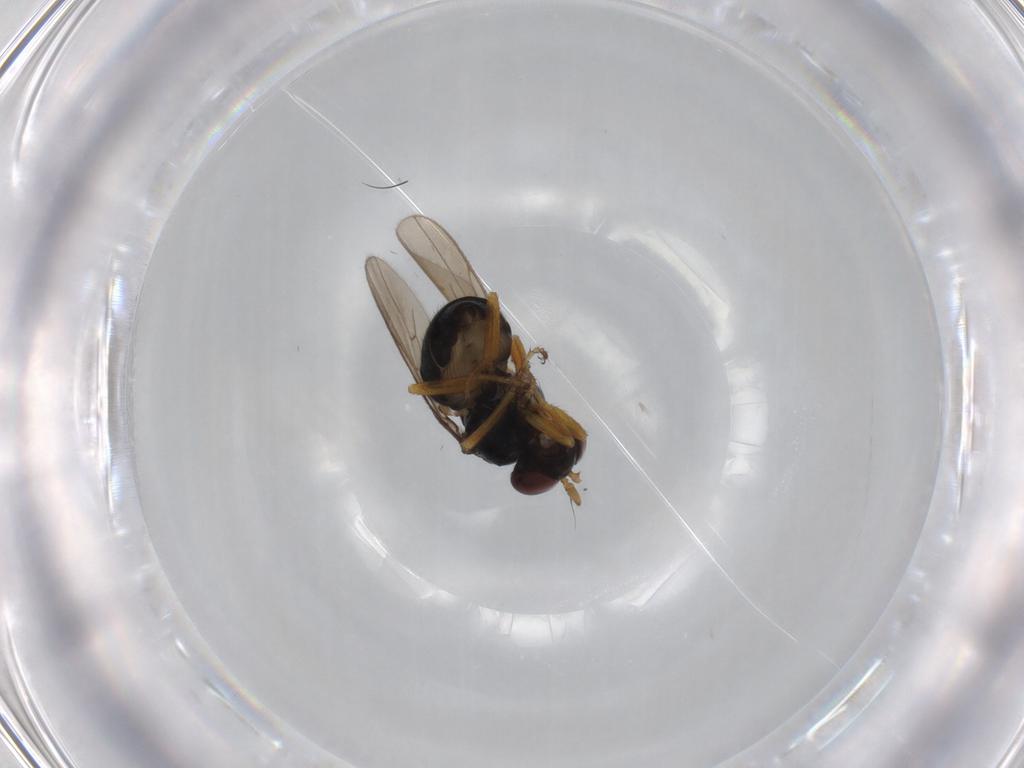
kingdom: Animalia
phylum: Arthropoda
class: Insecta
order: Diptera
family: Ephydridae
